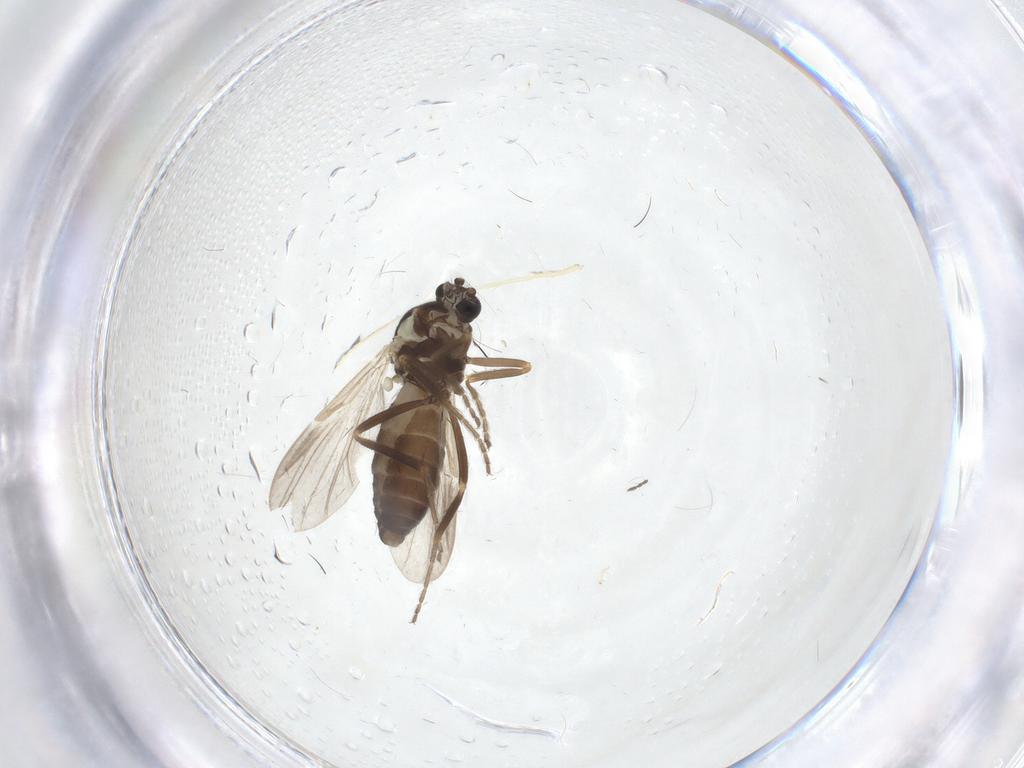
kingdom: Animalia
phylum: Arthropoda
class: Insecta
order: Diptera
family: Ceratopogonidae
